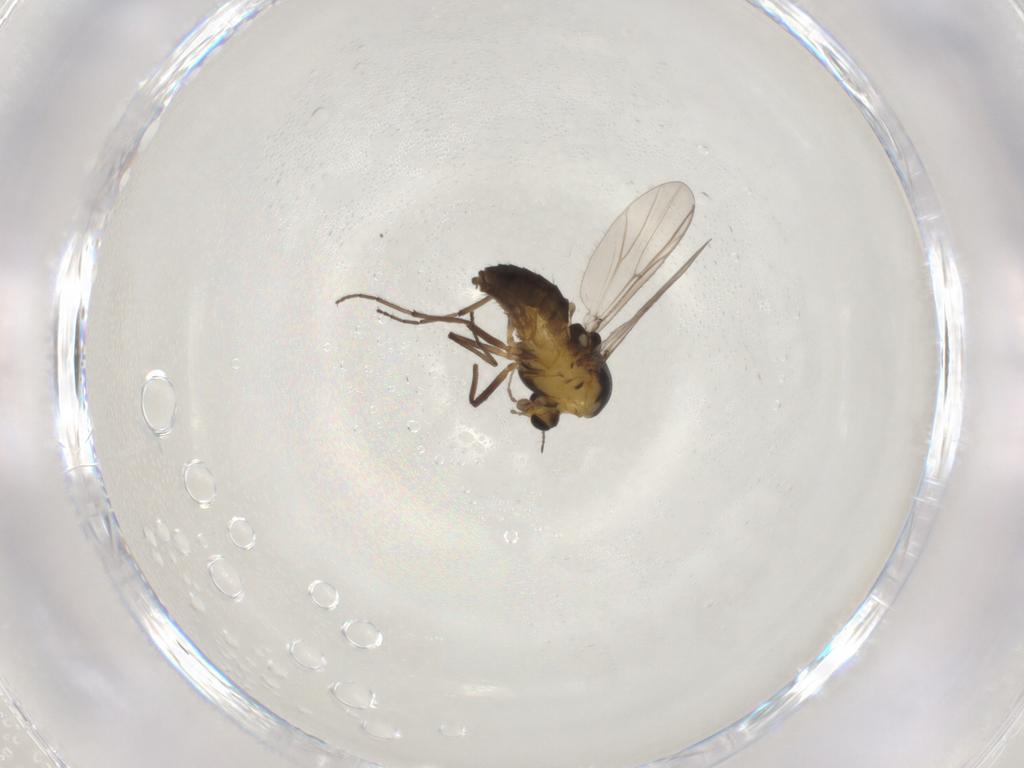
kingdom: Animalia
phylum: Arthropoda
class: Insecta
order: Diptera
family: Chironomidae
